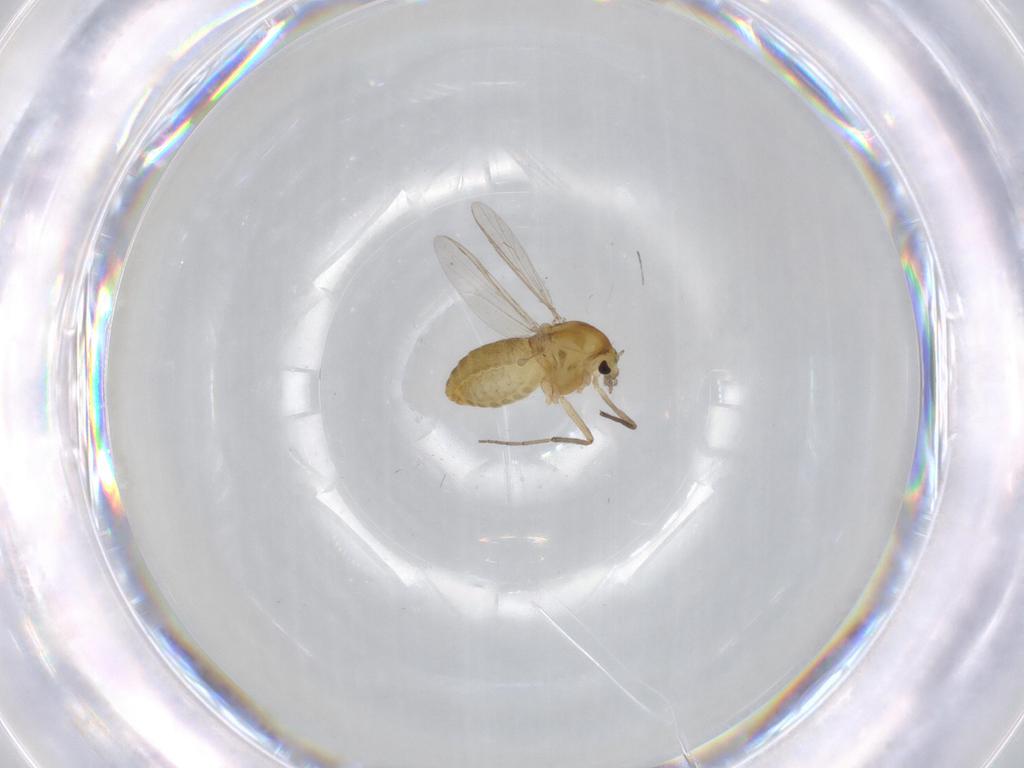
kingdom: Animalia
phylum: Arthropoda
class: Insecta
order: Diptera
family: Chironomidae
